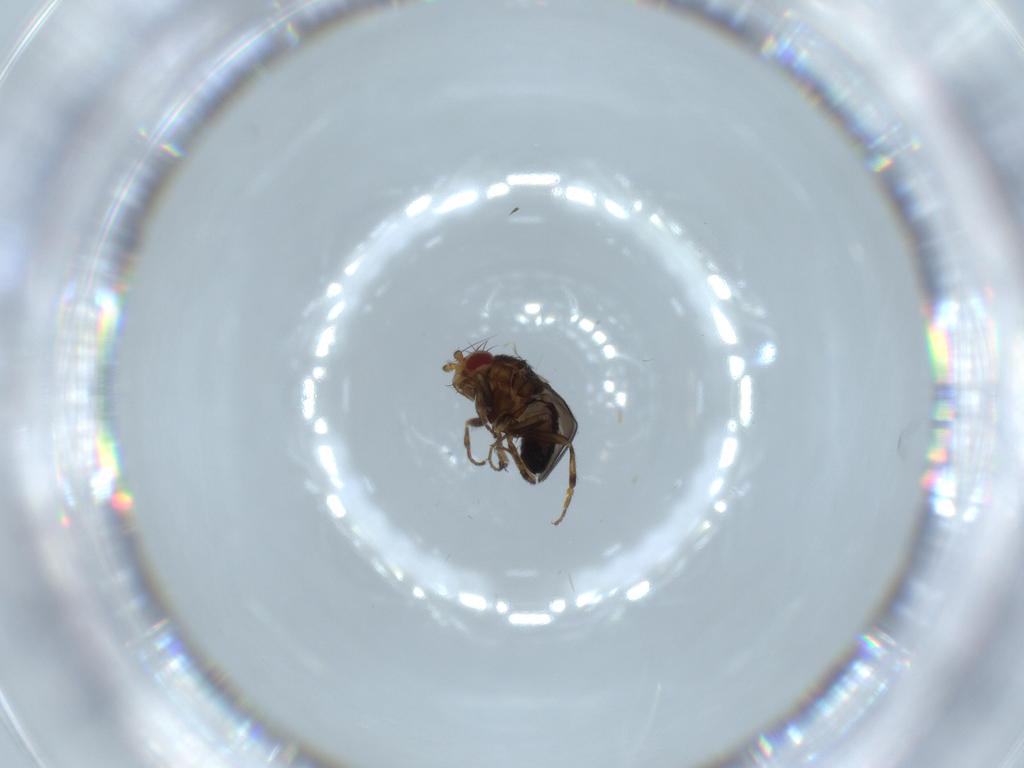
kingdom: Animalia
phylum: Arthropoda
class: Insecta
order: Diptera
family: Sphaeroceridae
